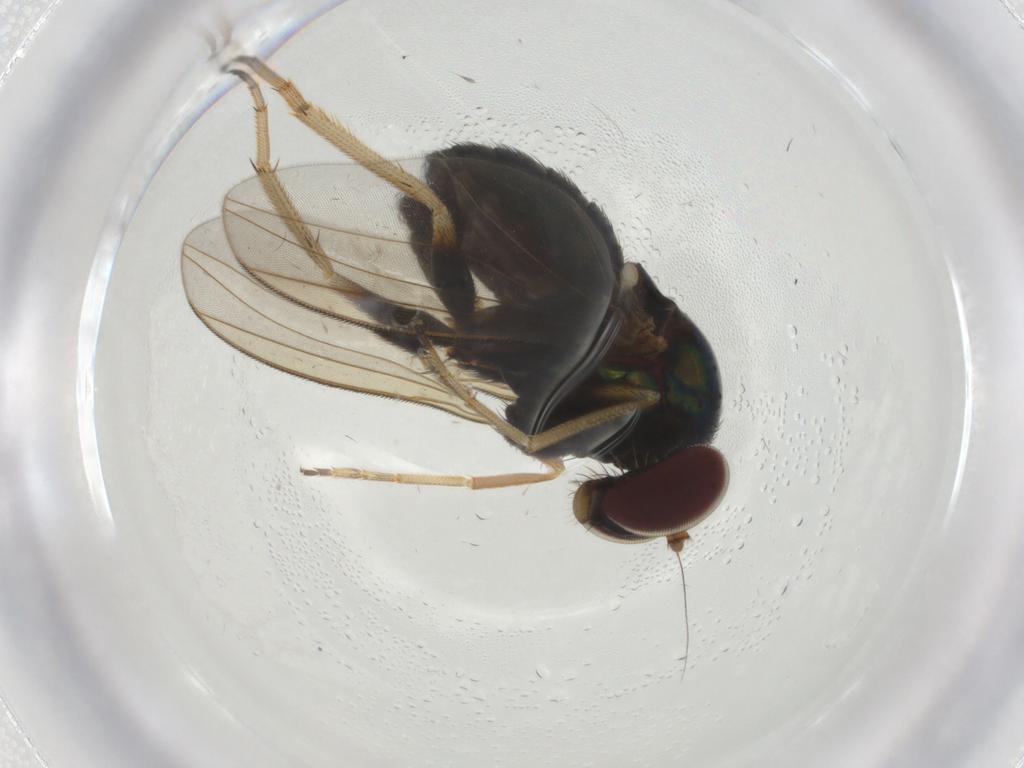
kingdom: Animalia
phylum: Arthropoda
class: Insecta
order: Diptera
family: Dolichopodidae
